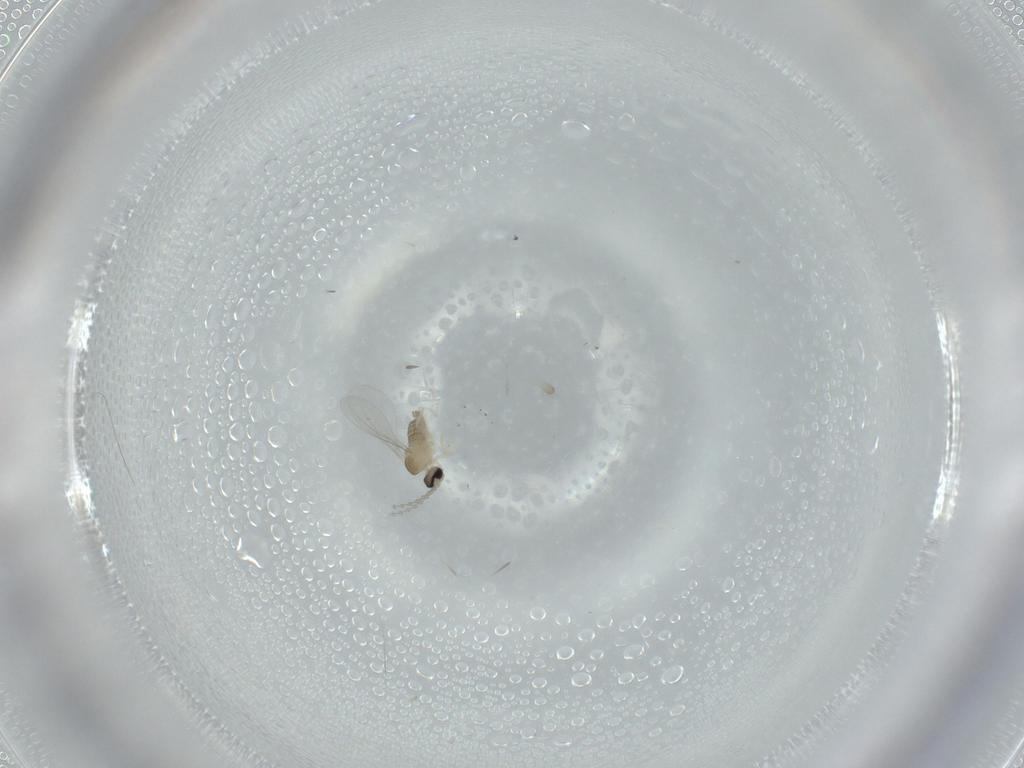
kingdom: Animalia
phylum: Arthropoda
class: Insecta
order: Diptera
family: Cecidomyiidae
